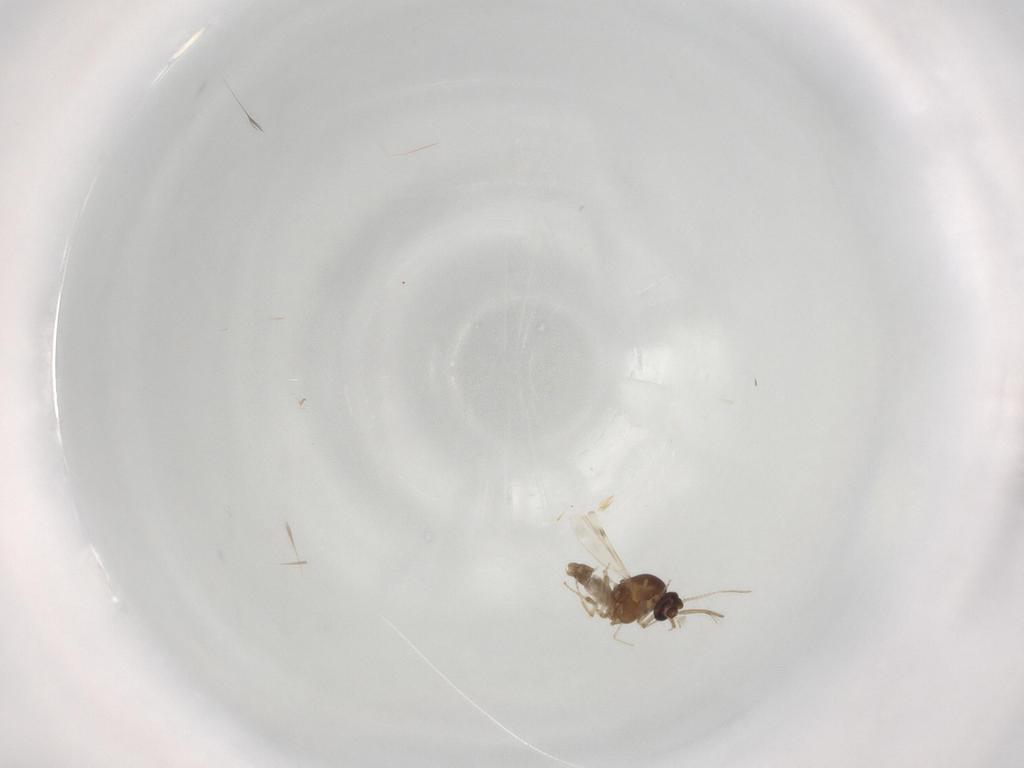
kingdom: Animalia
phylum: Arthropoda
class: Insecta
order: Diptera
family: Ceratopogonidae
